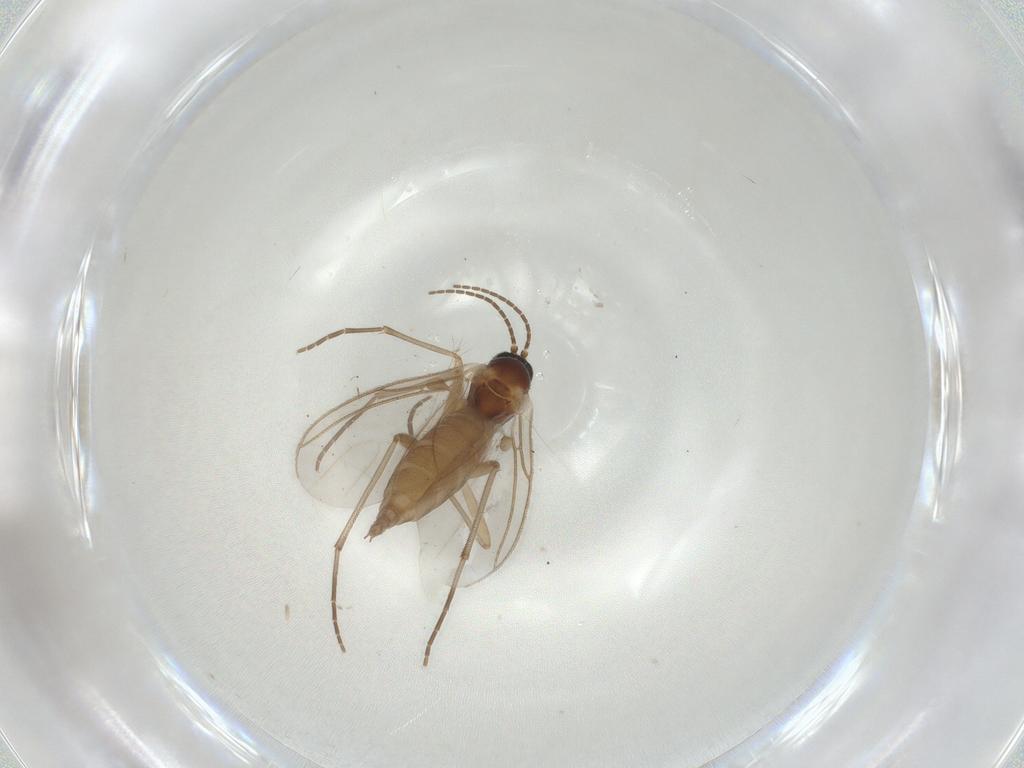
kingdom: Animalia
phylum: Arthropoda
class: Insecta
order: Diptera
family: Sciaridae
